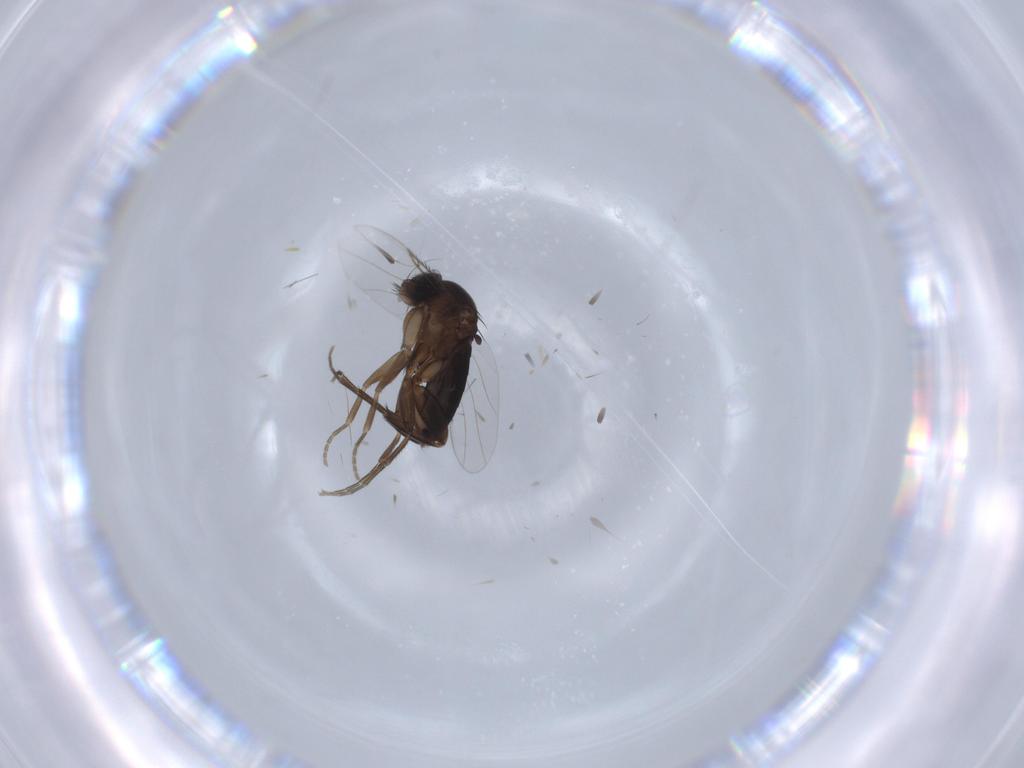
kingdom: Animalia
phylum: Arthropoda
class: Insecta
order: Diptera
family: Phoridae
